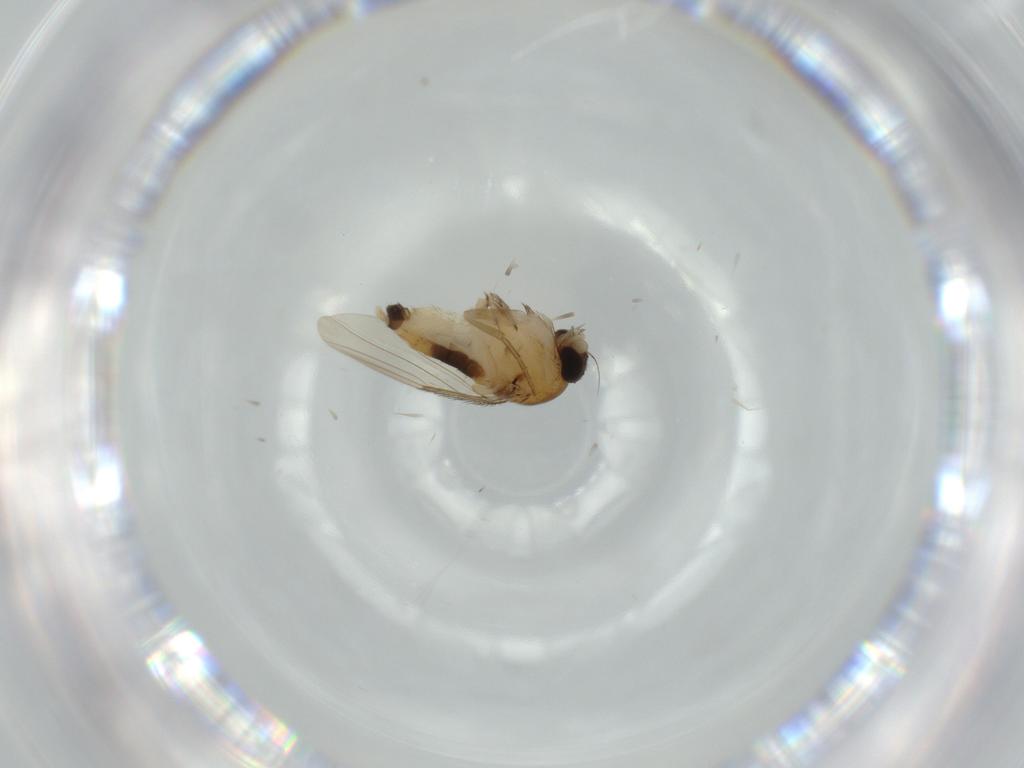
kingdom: Animalia
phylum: Arthropoda
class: Insecta
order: Diptera
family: Phoridae
